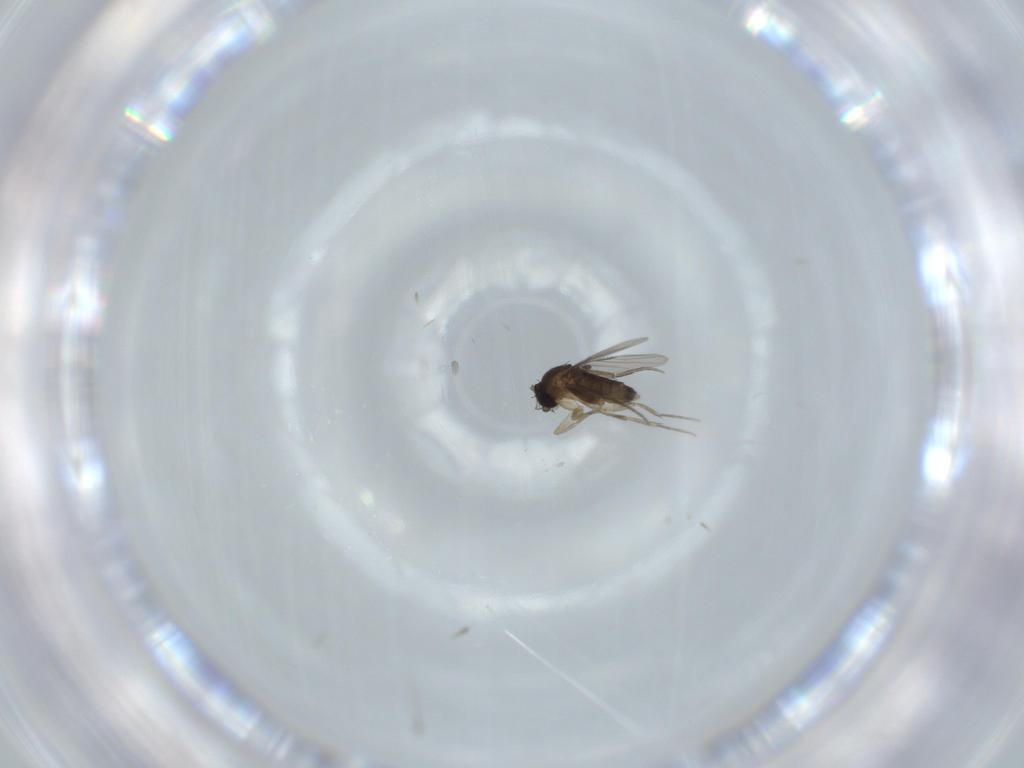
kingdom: Animalia
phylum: Arthropoda
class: Insecta
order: Diptera
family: Phoridae
